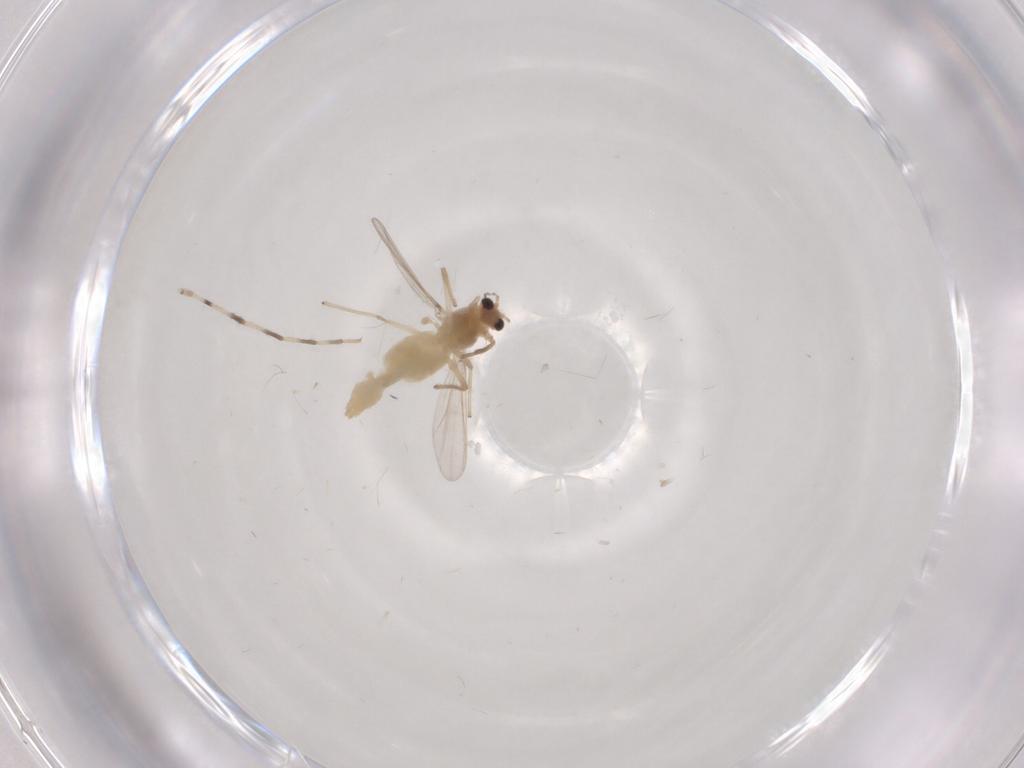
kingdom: Animalia
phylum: Arthropoda
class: Insecta
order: Diptera
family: Chironomidae
